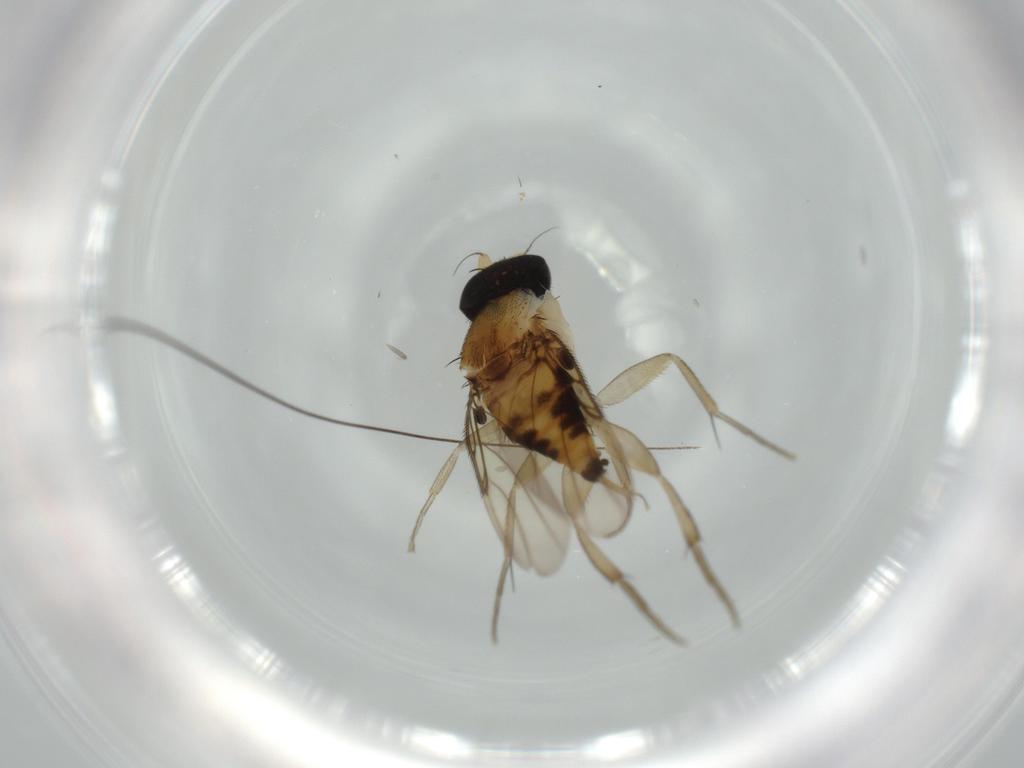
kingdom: Animalia
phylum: Arthropoda
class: Insecta
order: Diptera
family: Phoridae
